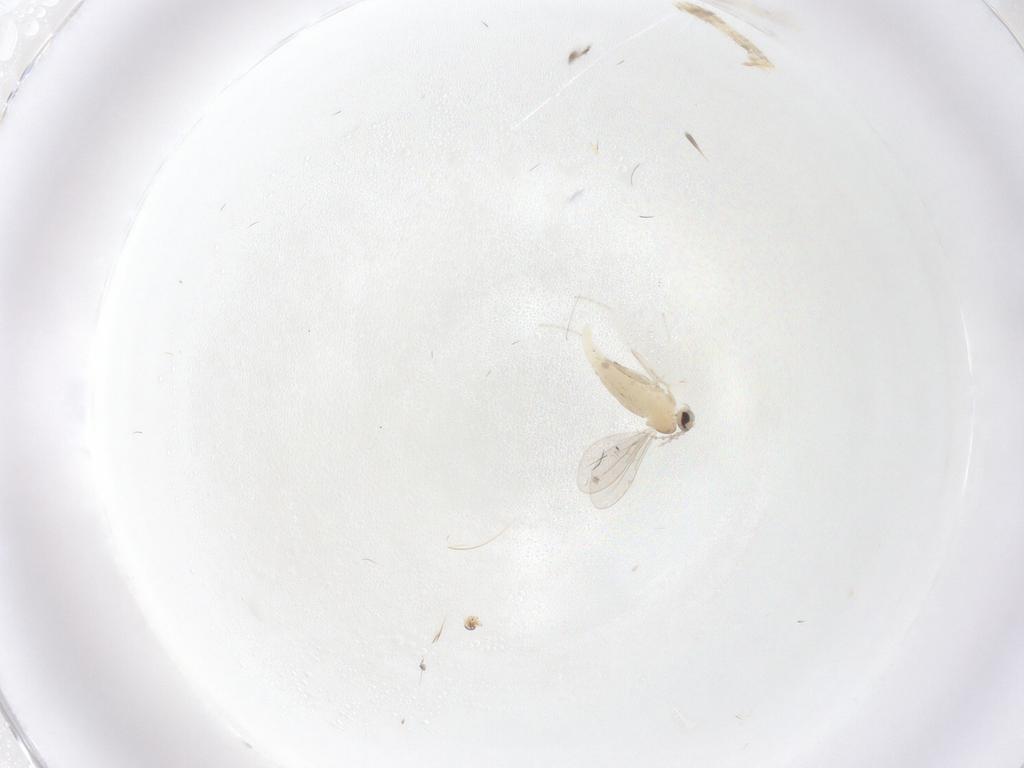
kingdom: Animalia
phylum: Arthropoda
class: Insecta
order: Diptera
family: Cecidomyiidae
